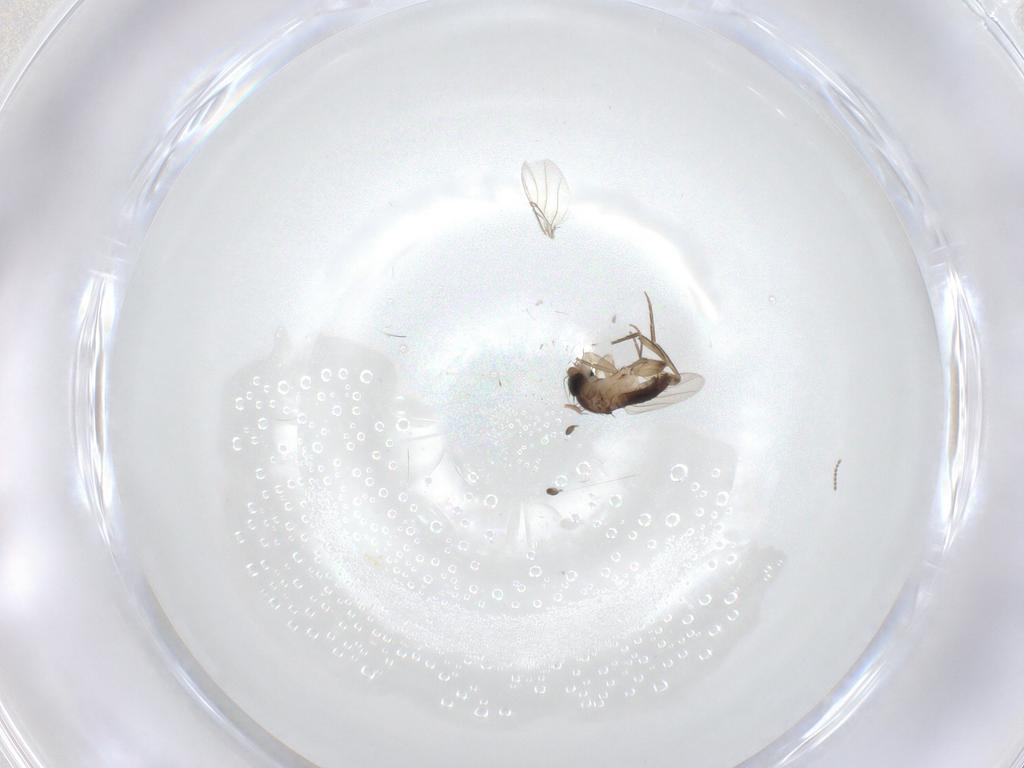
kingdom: Animalia
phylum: Arthropoda
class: Insecta
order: Diptera
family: Phoridae
